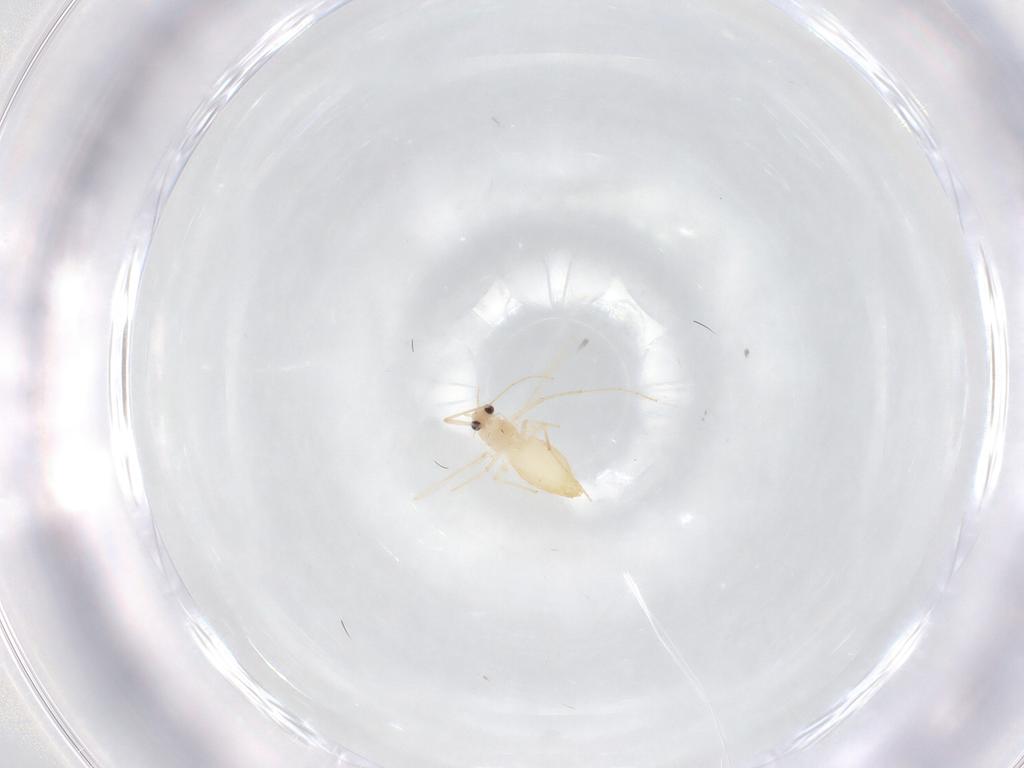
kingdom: Animalia
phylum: Arthropoda
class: Insecta
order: Diptera
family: Chironomidae
